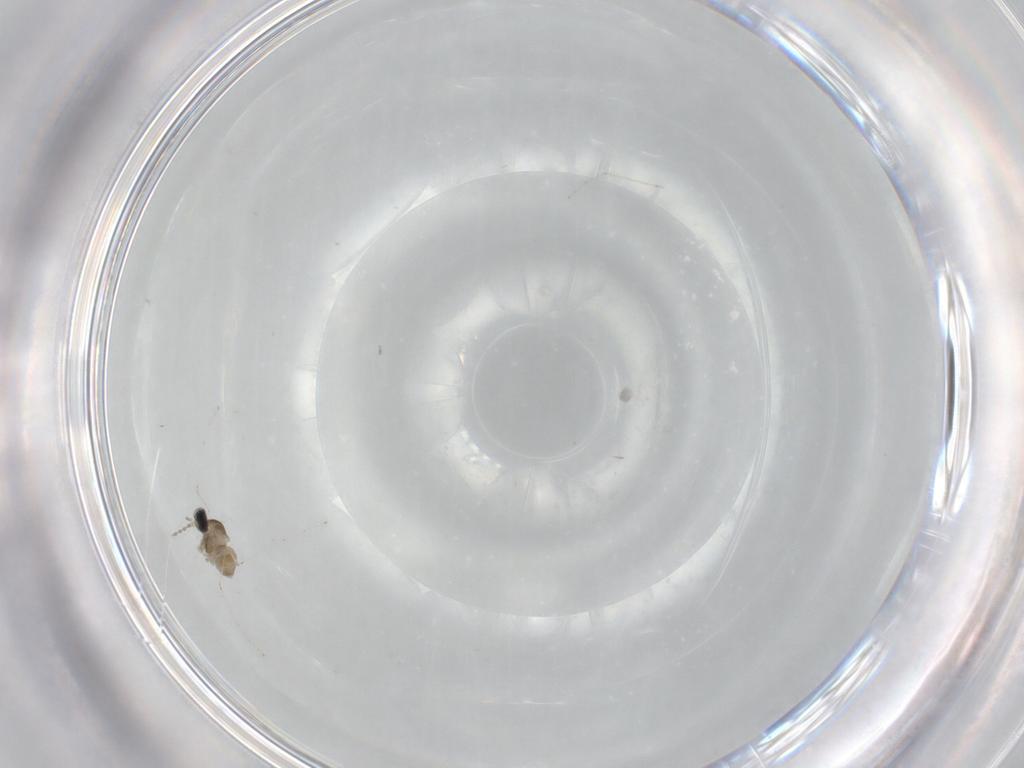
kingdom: Animalia
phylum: Arthropoda
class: Insecta
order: Diptera
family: Cecidomyiidae
